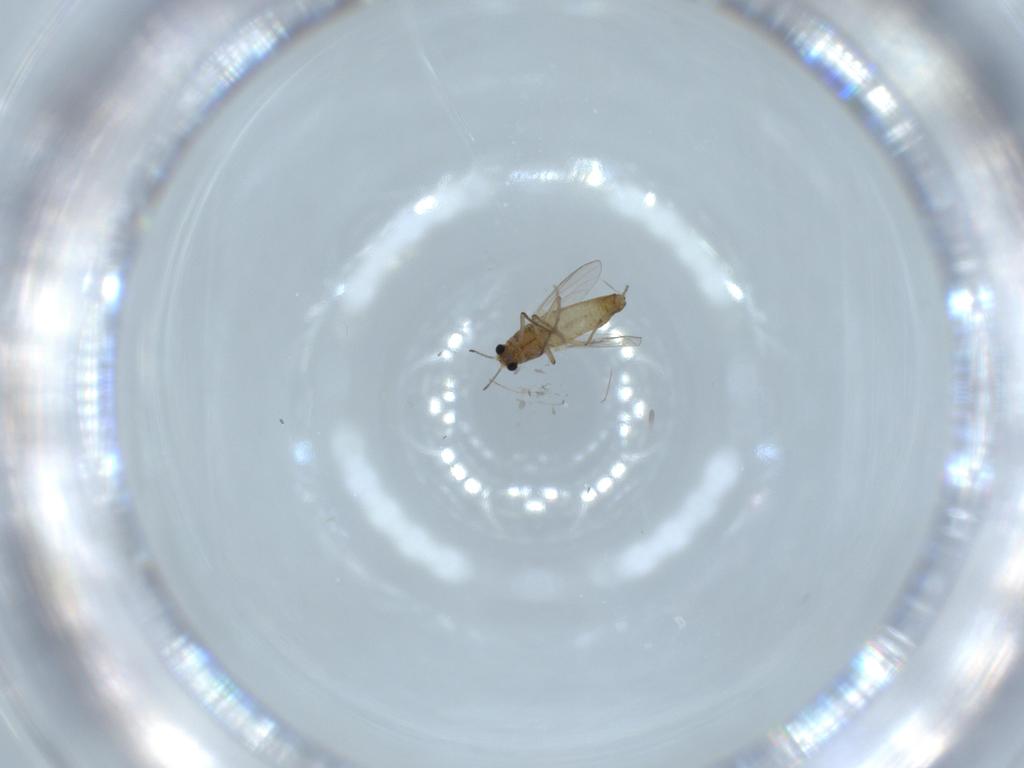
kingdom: Animalia
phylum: Arthropoda
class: Insecta
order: Diptera
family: Chironomidae
